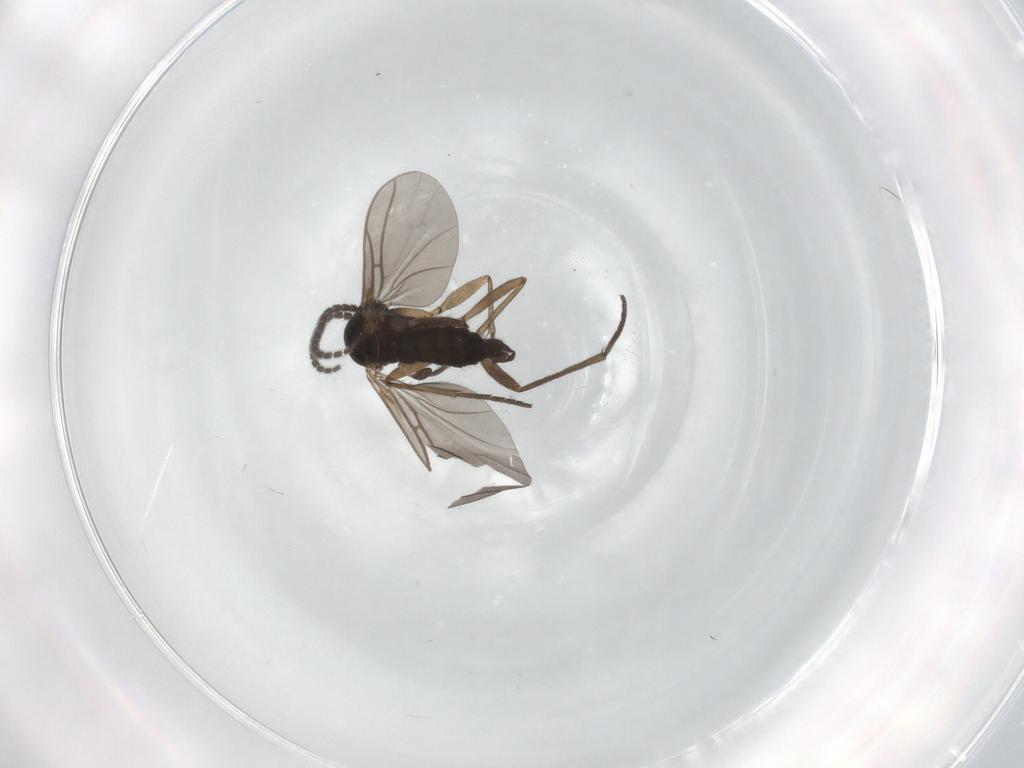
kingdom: Animalia
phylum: Arthropoda
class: Insecta
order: Diptera
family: Sciaridae
